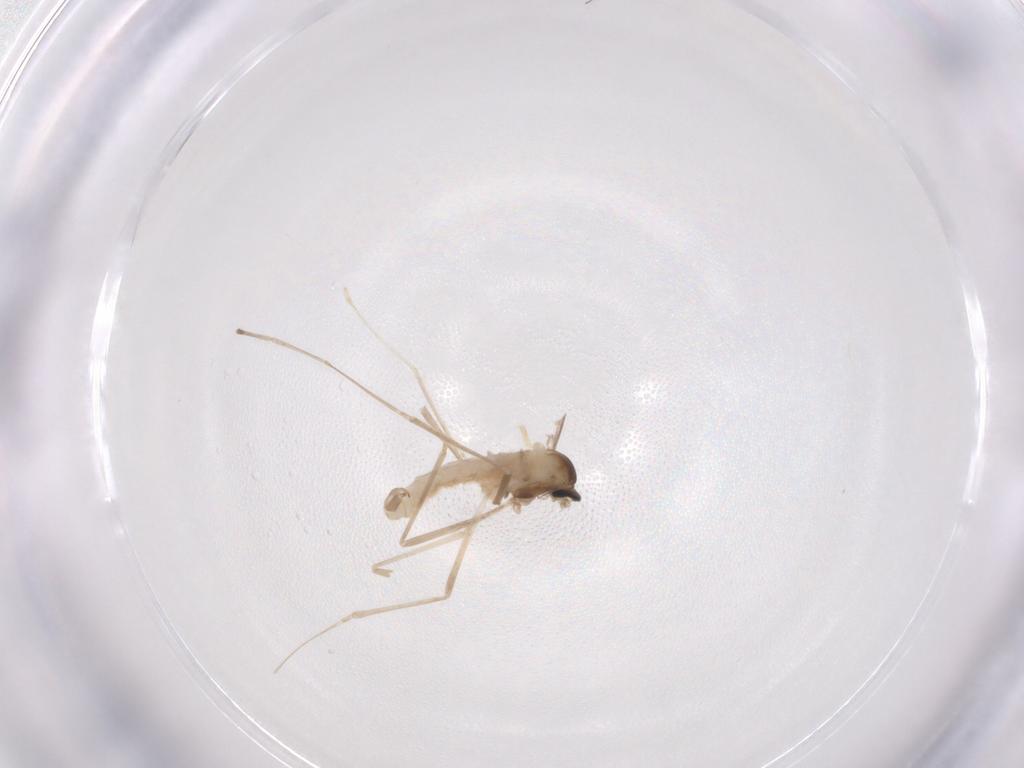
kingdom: Animalia
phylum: Arthropoda
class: Insecta
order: Diptera
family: Cecidomyiidae
